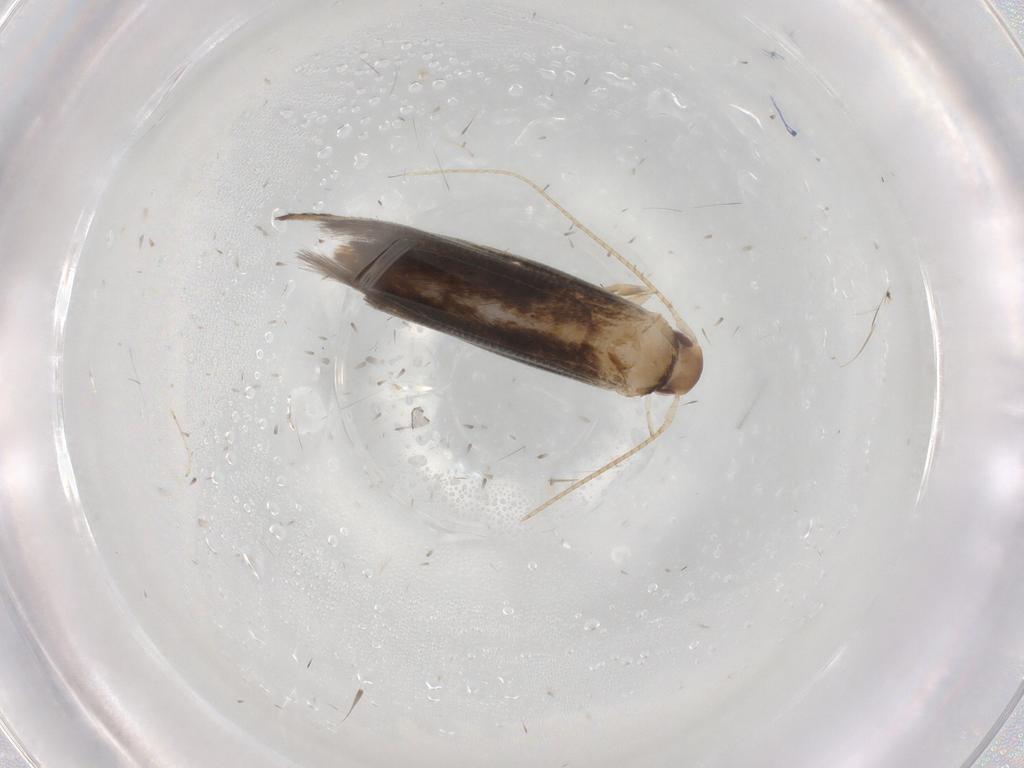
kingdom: Animalia
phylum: Arthropoda
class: Insecta
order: Lepidoptera
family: Momphidae
